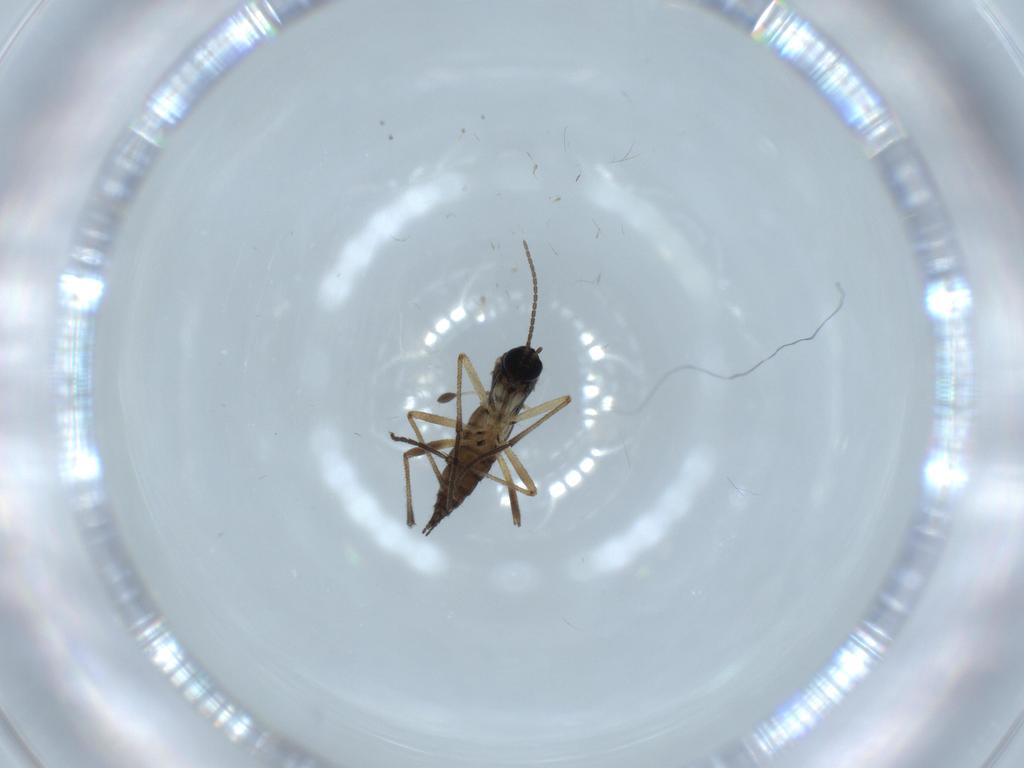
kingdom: Animalia
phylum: Arthropoda
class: Insecta
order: Diptera
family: Sciaridae
